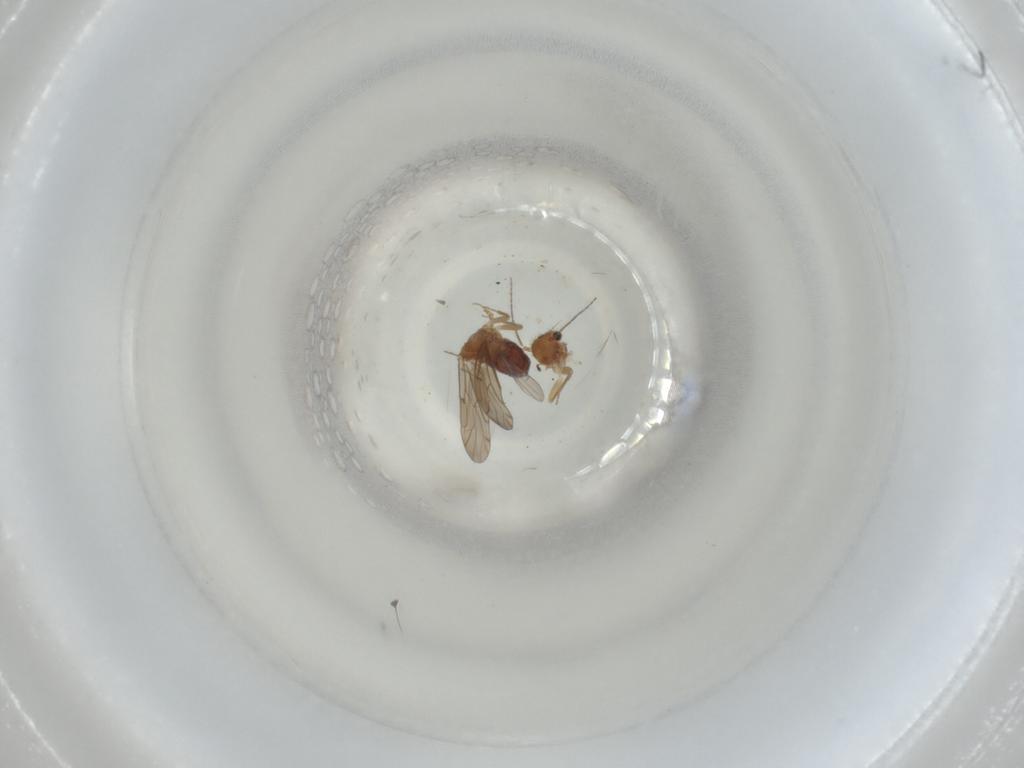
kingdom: Animalia
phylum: Arthropoda
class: Insecta
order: Psocodea
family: Ectopsocidae
